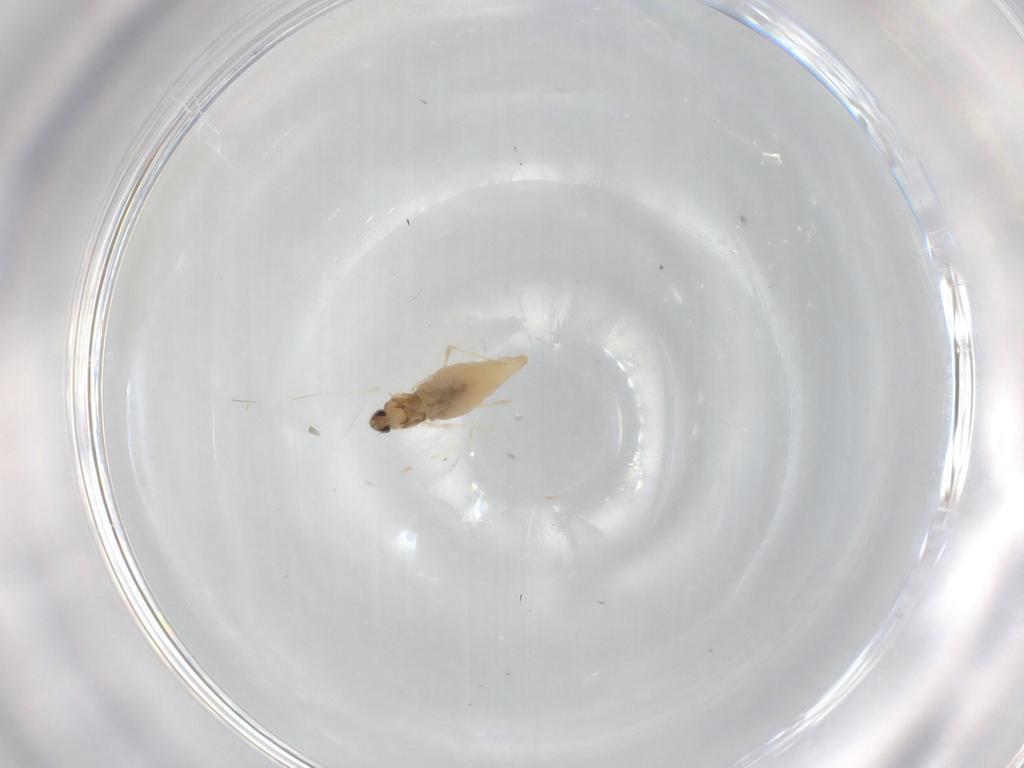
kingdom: Animalia
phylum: Arthropoda
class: Insecta
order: Diptera
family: Cecidomyiidae
